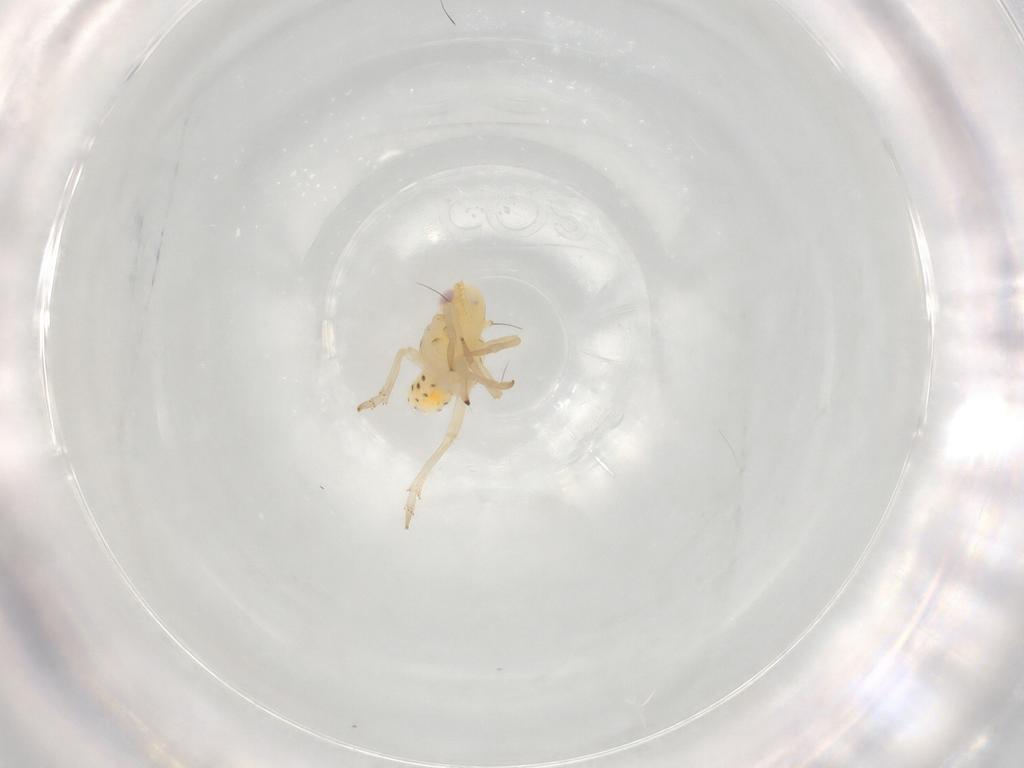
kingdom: Animalia
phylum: Arthropoda
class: Insecta
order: Hemiptera
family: Tropiduchidae
